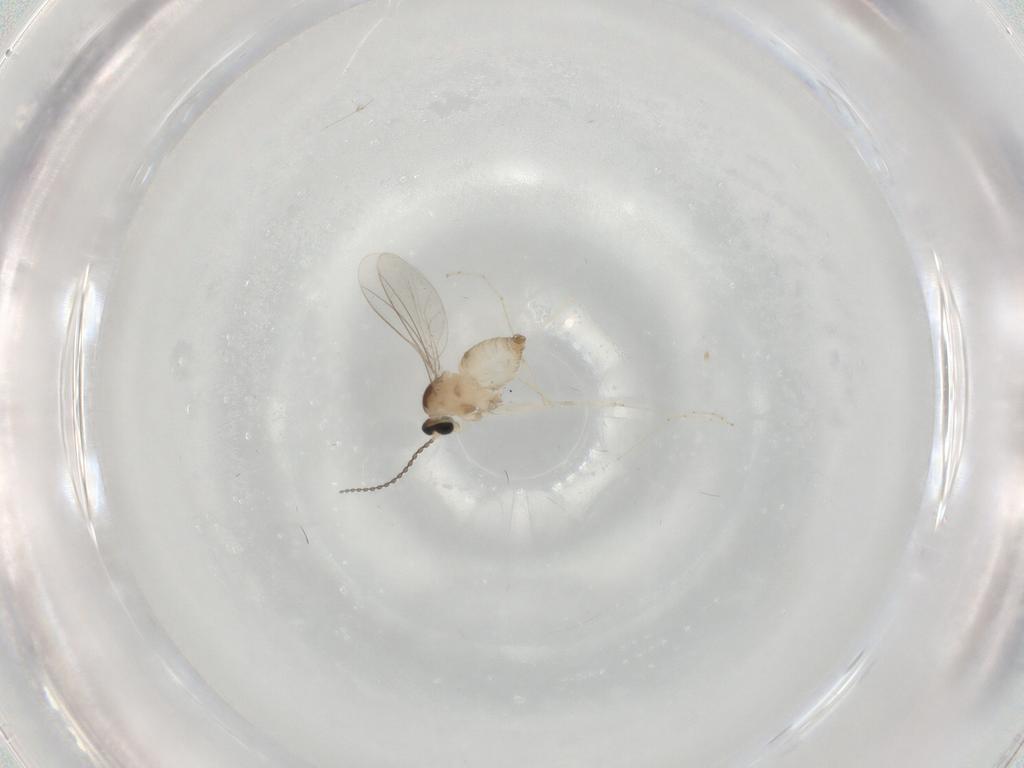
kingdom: Animalia
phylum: Arthropoda
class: Insecta
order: Diptera
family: Cecidomyiidae
